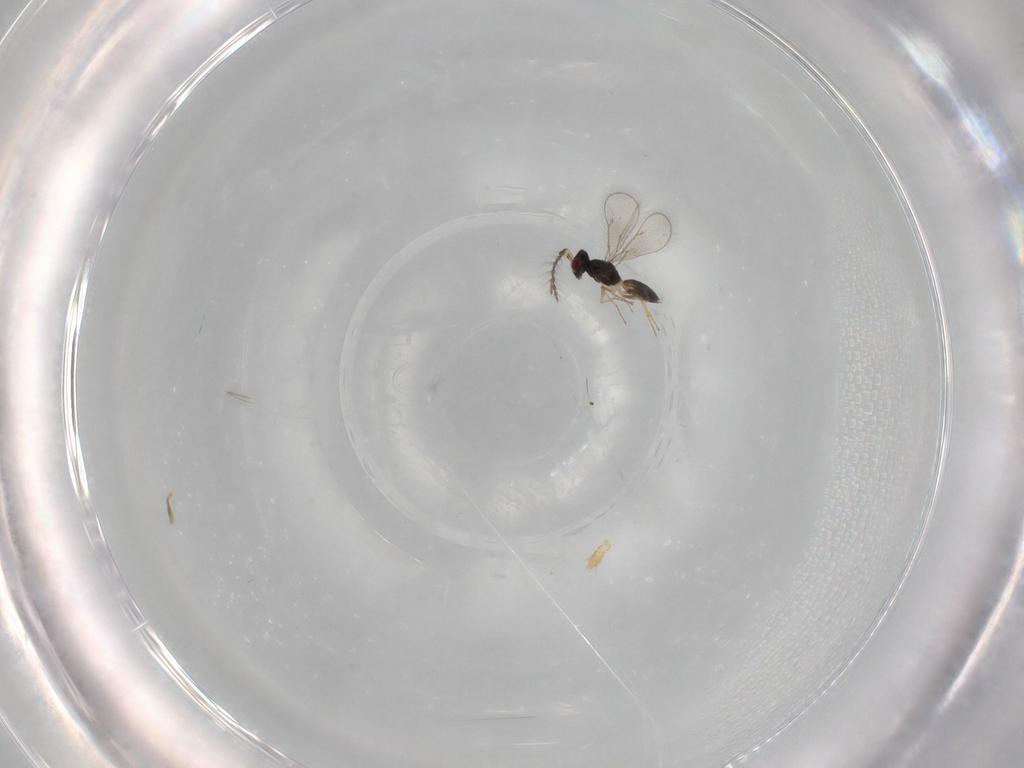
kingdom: Animalia
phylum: Arthropoda
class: Insecta
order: Hymenoptera
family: Eulophidae
